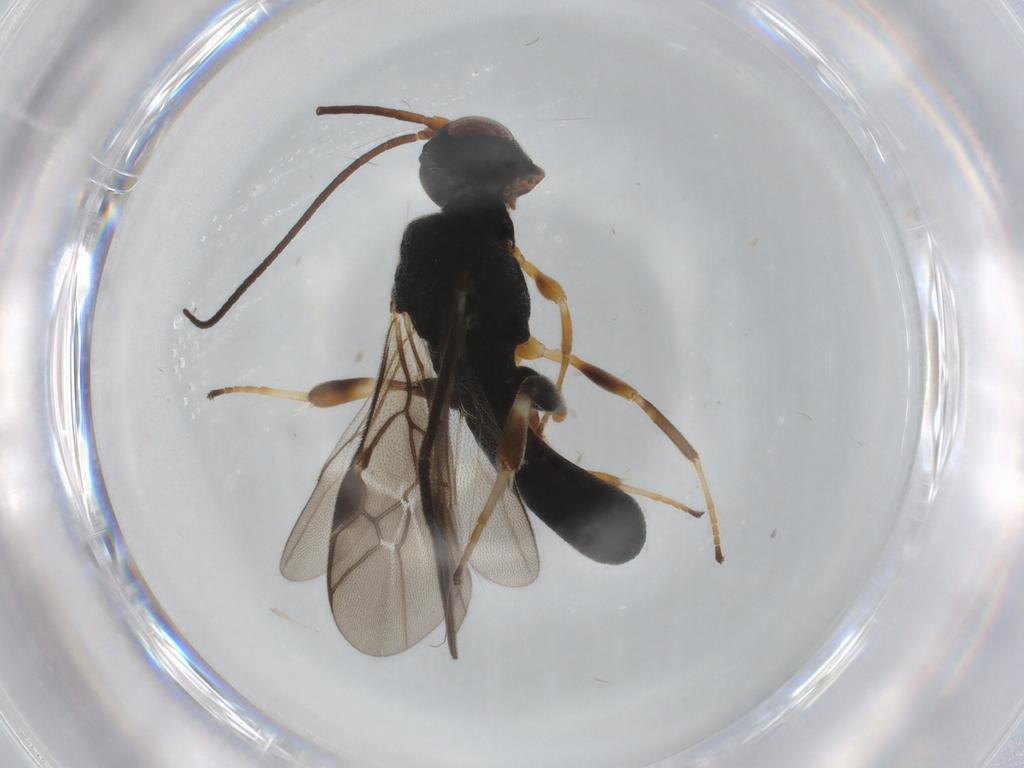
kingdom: Animalia
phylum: Arthropoda
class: Insecta
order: Hymenoptera
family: Braconidae
